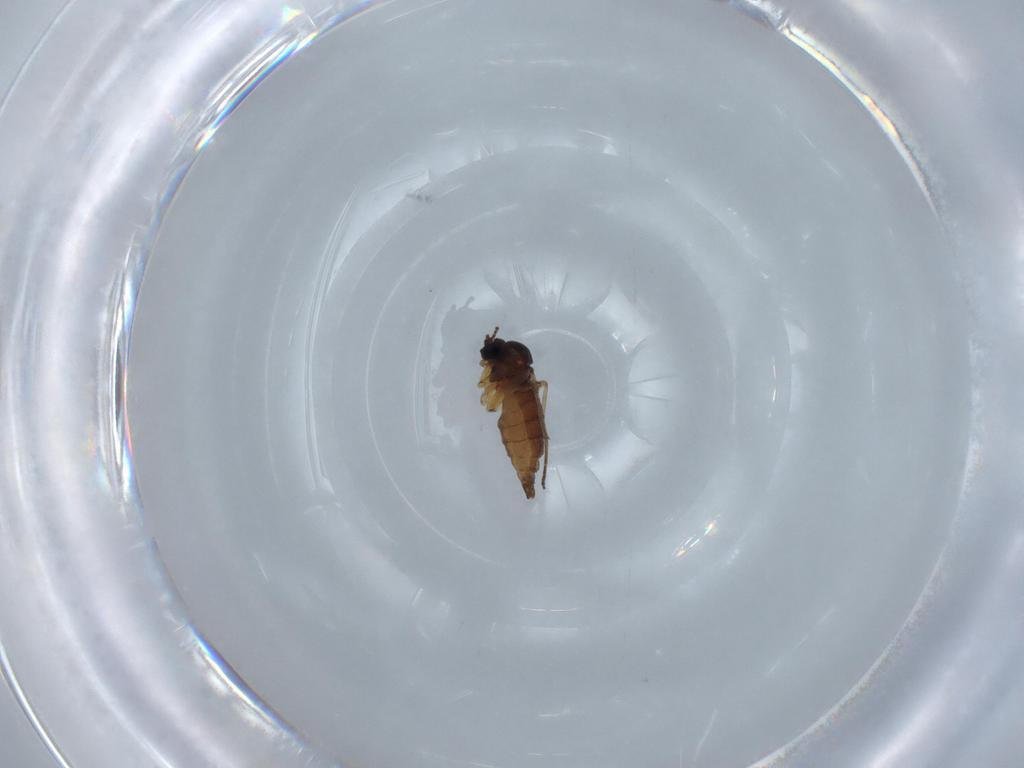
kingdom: Animalia
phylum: Arthropoda
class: Insecta
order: Diptera
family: Sciaridae
